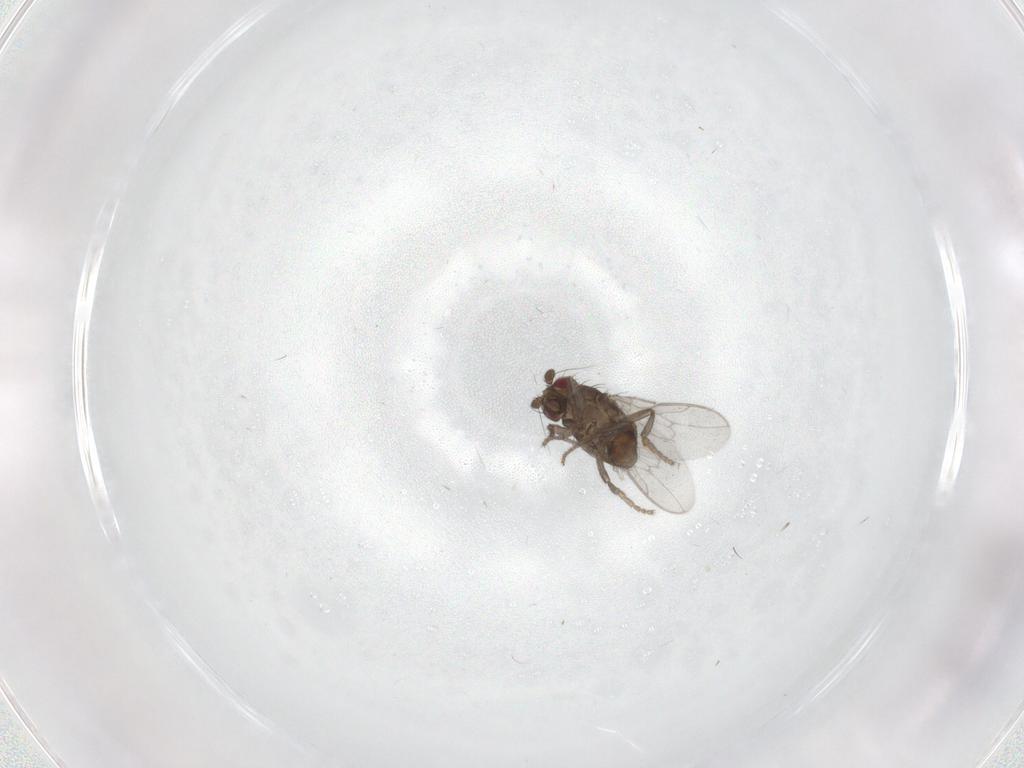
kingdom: Animalia
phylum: Arthropoda
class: Insecta
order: Diptera
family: Sphaeroceridae
